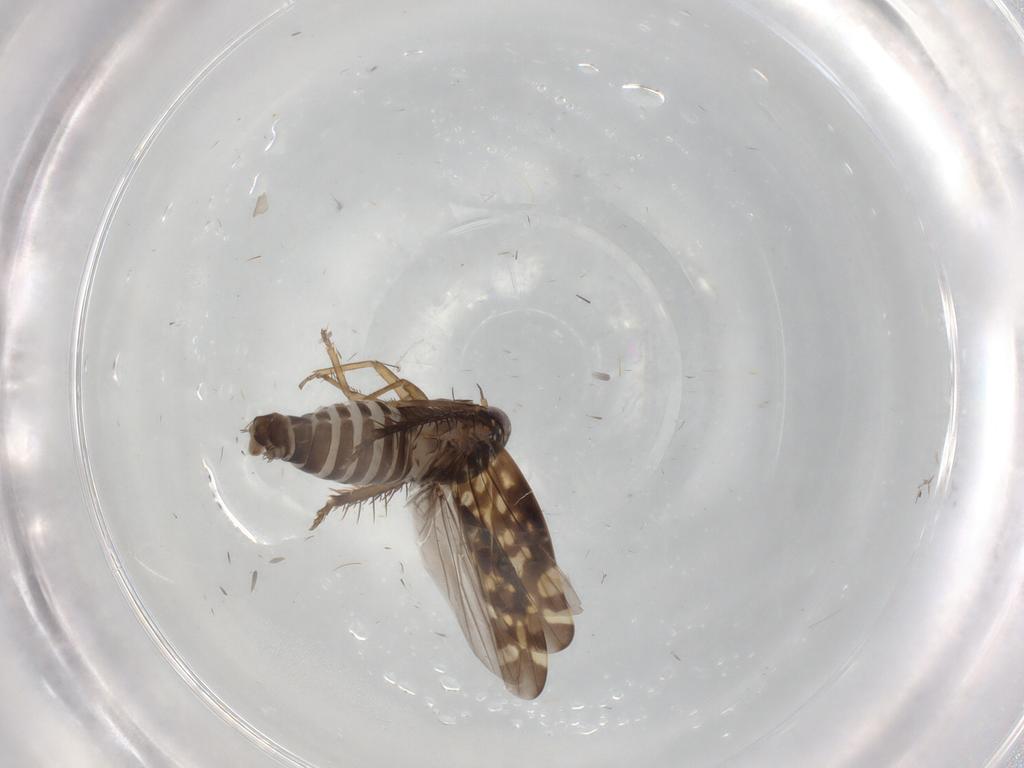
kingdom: Animalia
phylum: Arthropoda
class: Insecta
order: Hemiptera
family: Cicadellidae
